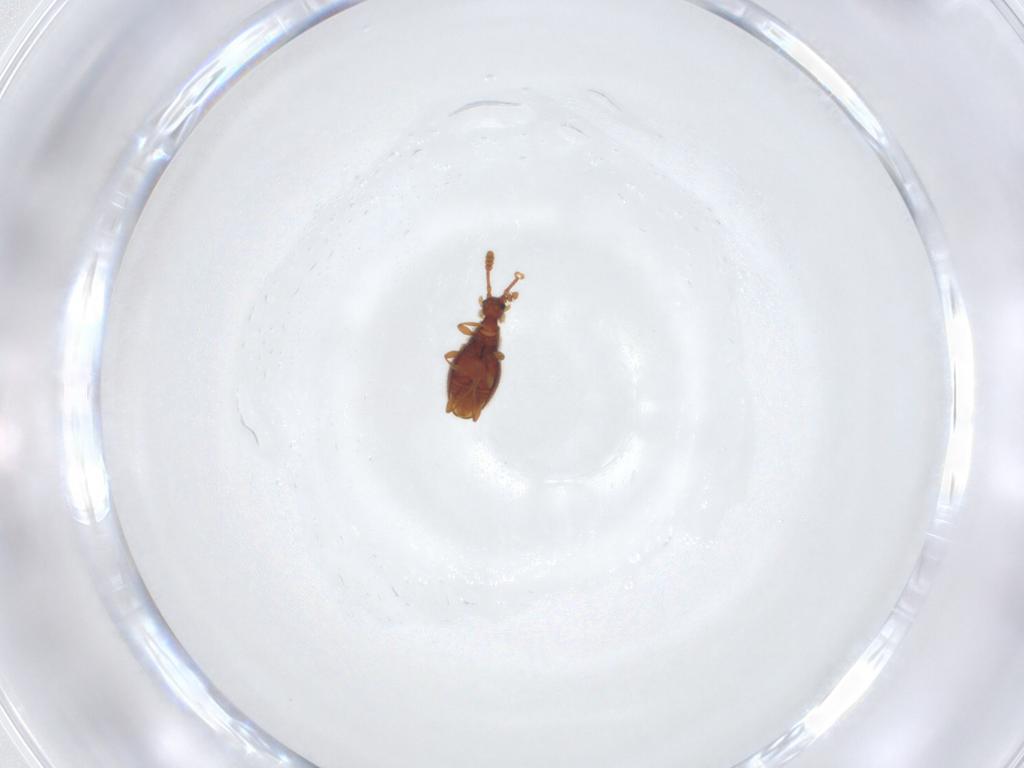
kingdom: Animalia
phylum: Arthropoda
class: Insecta
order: Coleoptera
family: Staphylinidae
